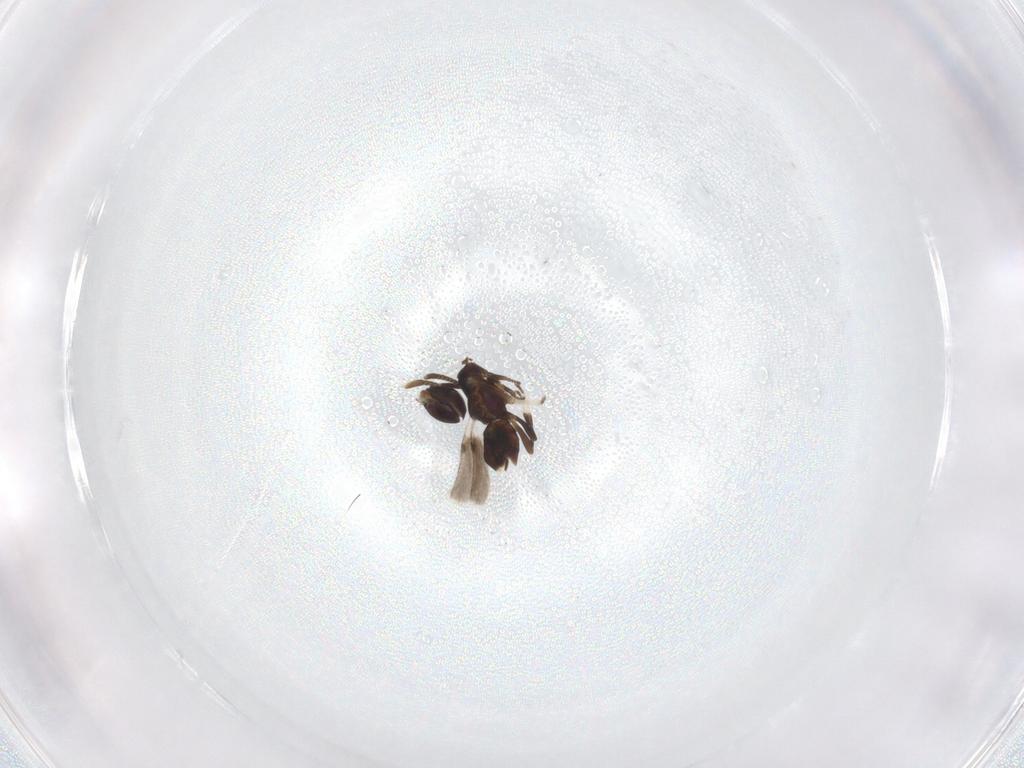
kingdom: Animalia
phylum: Arthropoda
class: Insecta
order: Hymenoptera
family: Encyrtidae
